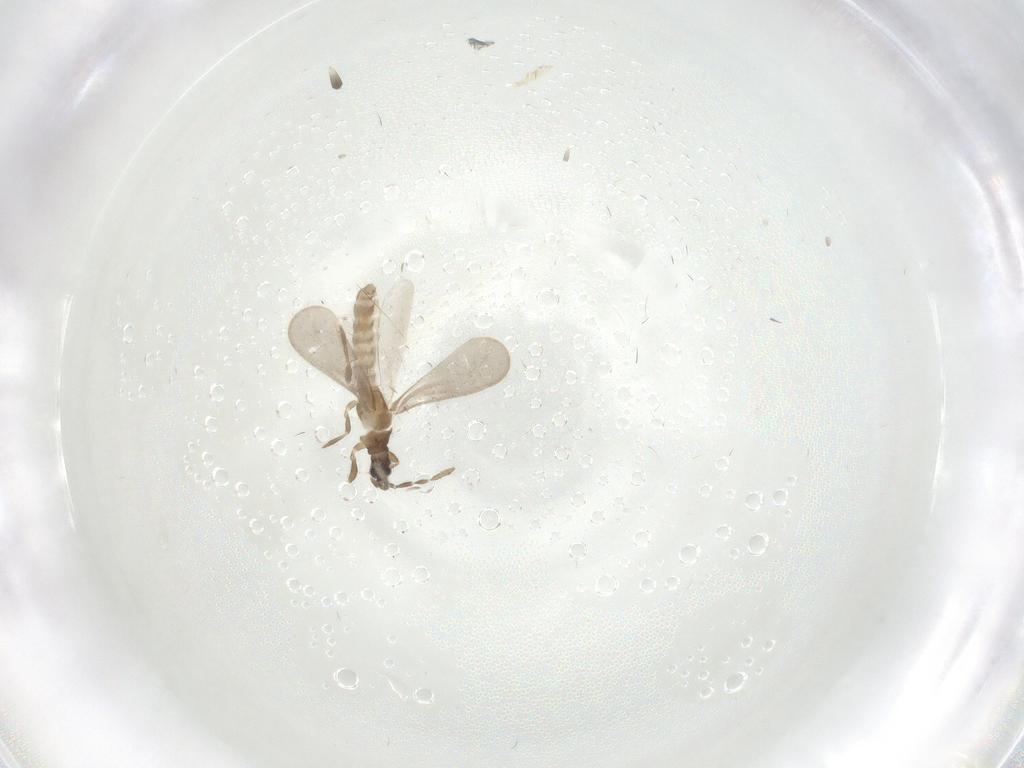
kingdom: Animalia
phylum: Arthropoda
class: Insecta
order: Hemiptera
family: Enicocephalidae
